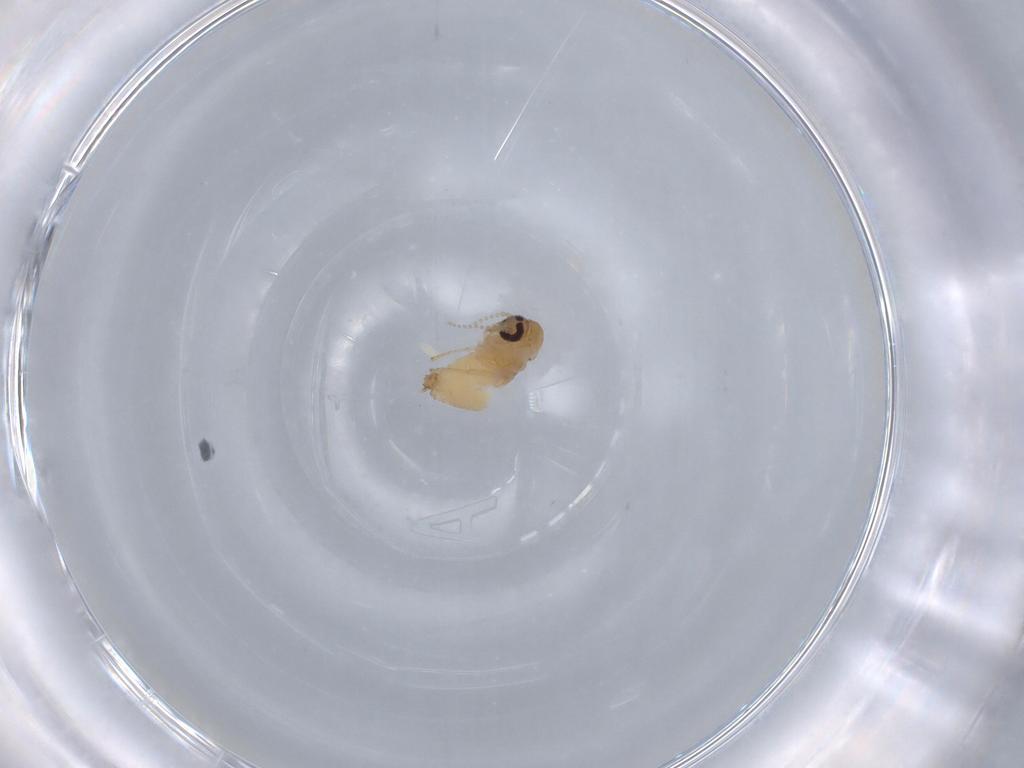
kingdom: Animalia
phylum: Arthropoda
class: Insecta
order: Diptera
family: Psychodidae
